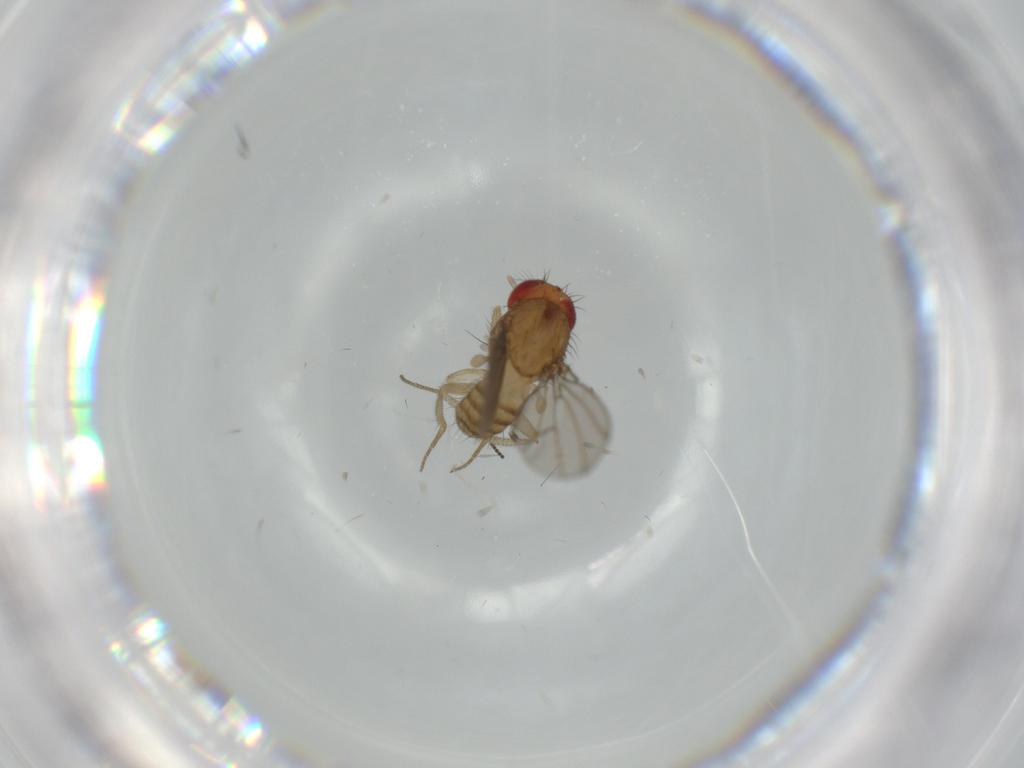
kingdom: Animalia
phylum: Arthropoda
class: Insecta
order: Diptera
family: Drosophilidae
